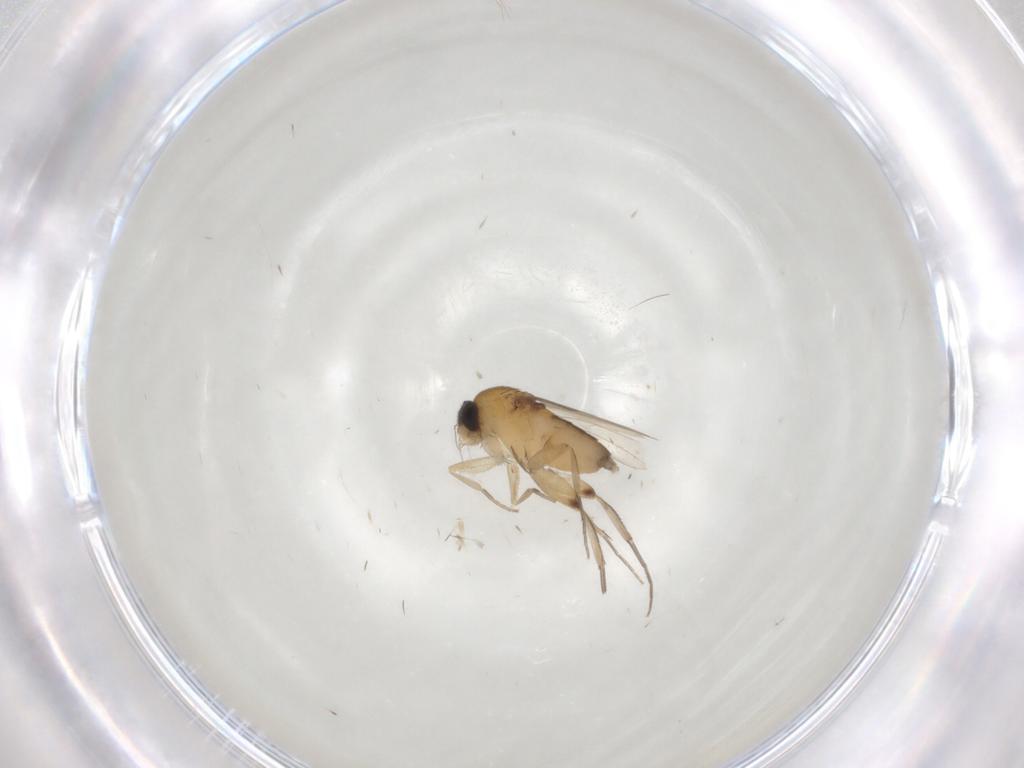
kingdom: Animalia
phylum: Arthropoda
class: Insecta
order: Diptera
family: Phoridae
